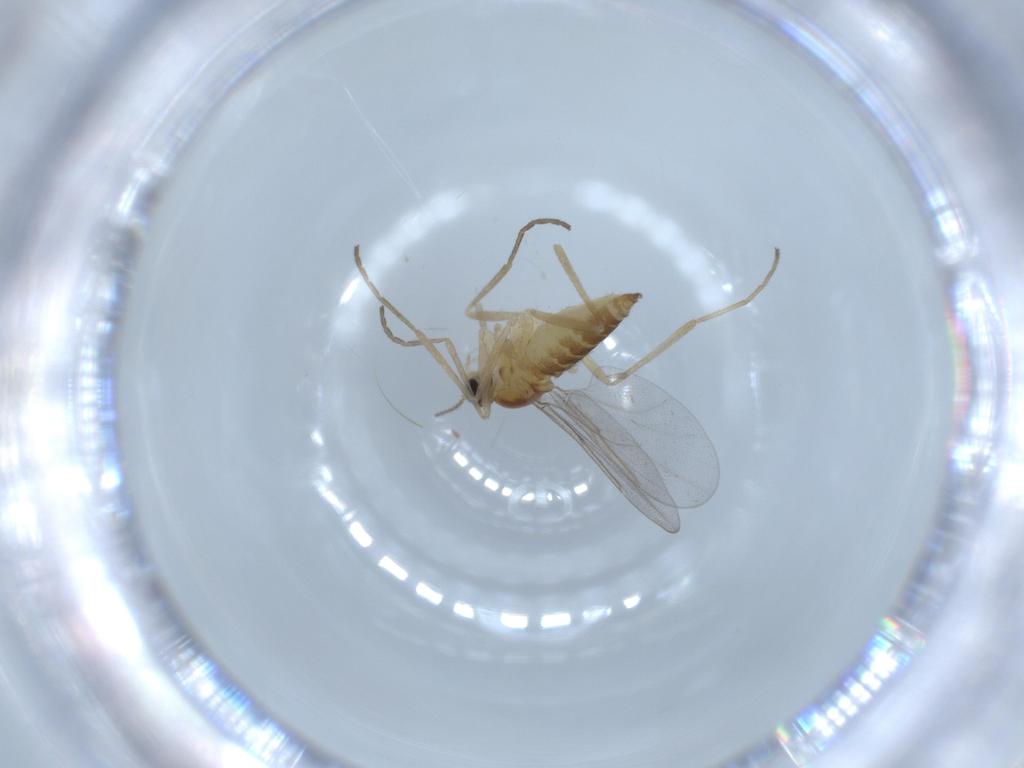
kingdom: Animalia
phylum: Arthropoda
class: Insecta
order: Diptera
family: Cecidomyiidae
